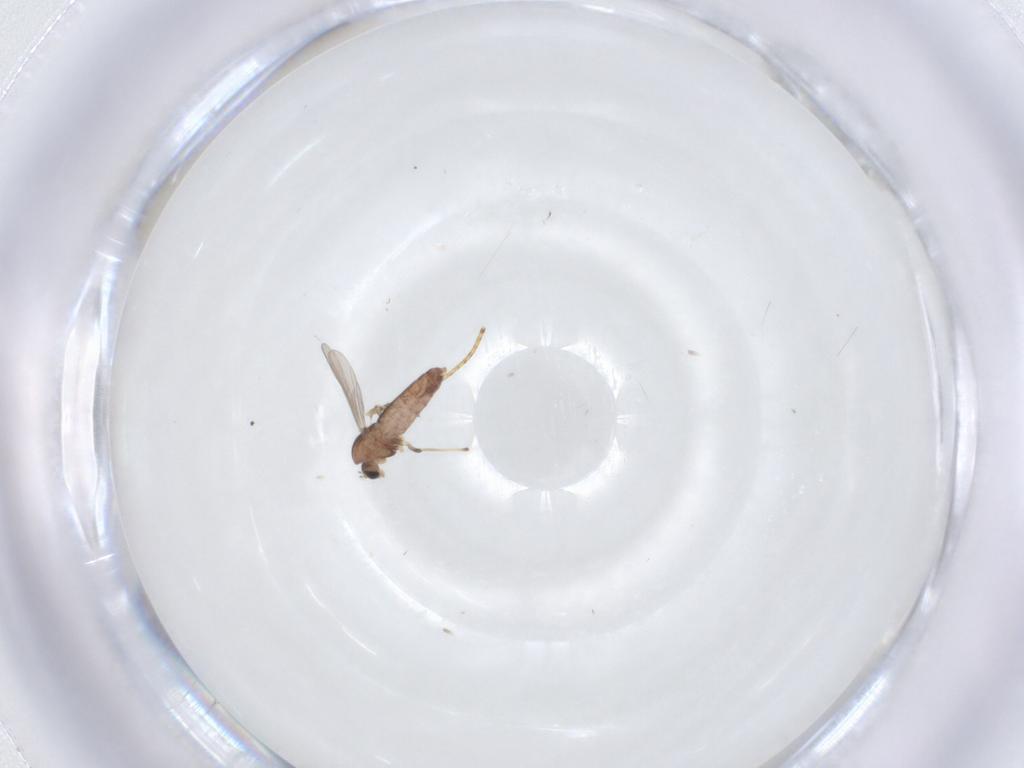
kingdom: Animalia
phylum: Arthropoda
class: Insecta
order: Diptera
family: Chironomidae
